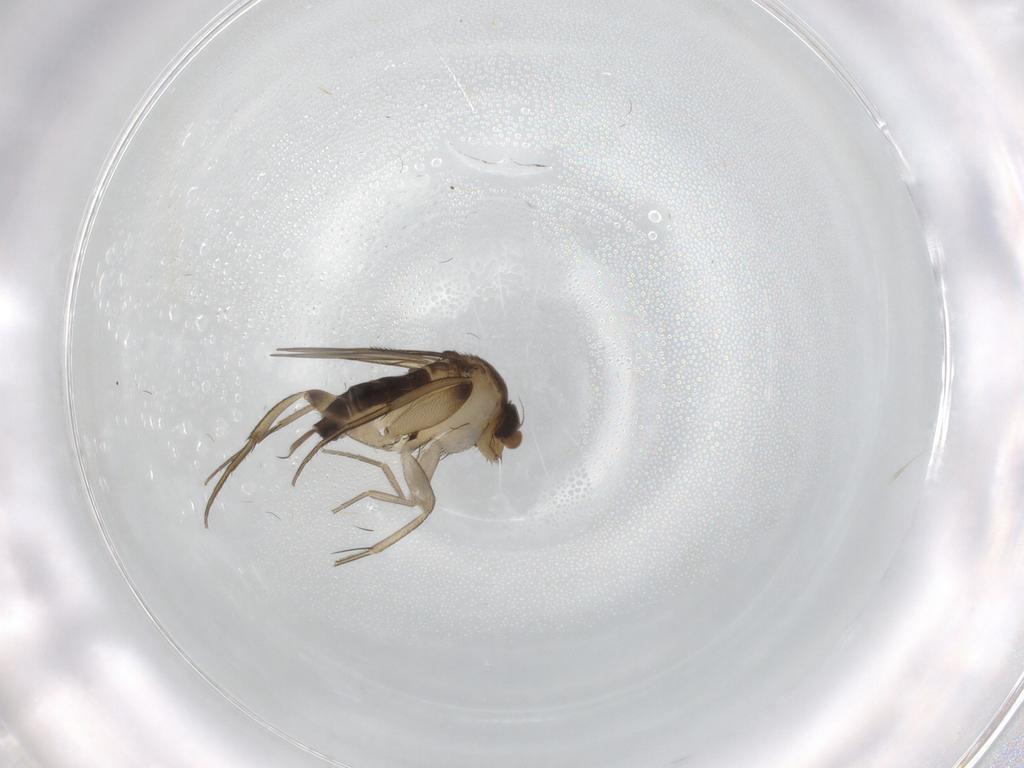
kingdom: Animalia
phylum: Arthropoda
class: Insecta
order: Diptera
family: Phoridae
